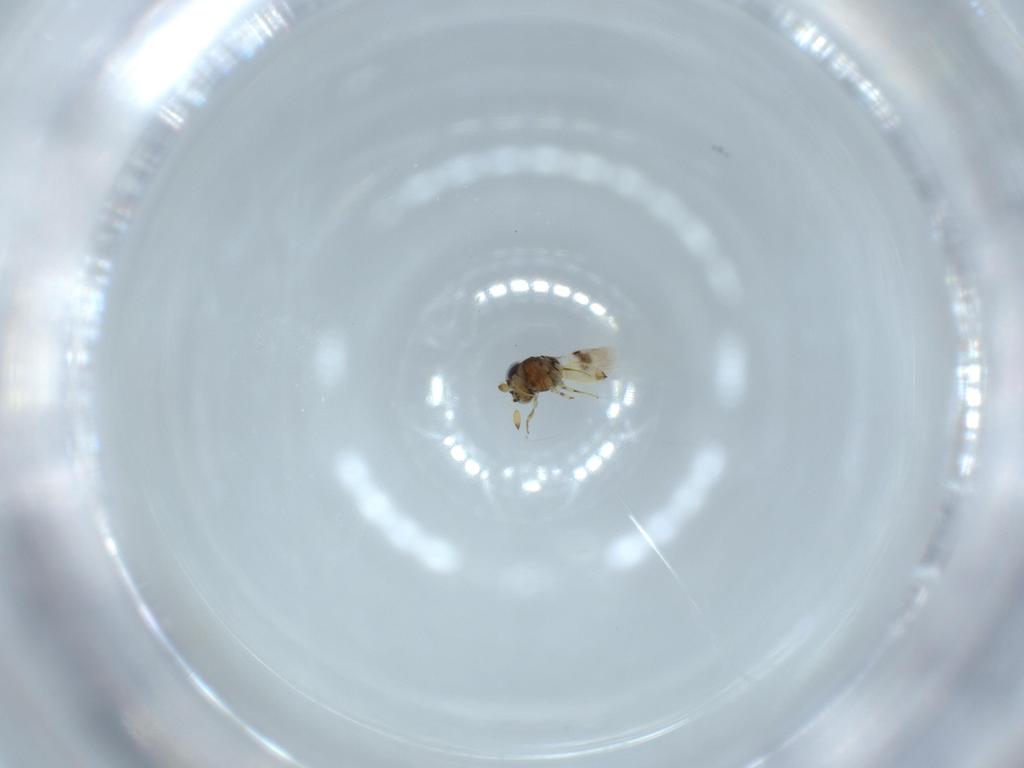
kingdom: Animalia
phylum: Arthropoda
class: Insecta
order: Hymenoptera
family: Scelionidae
